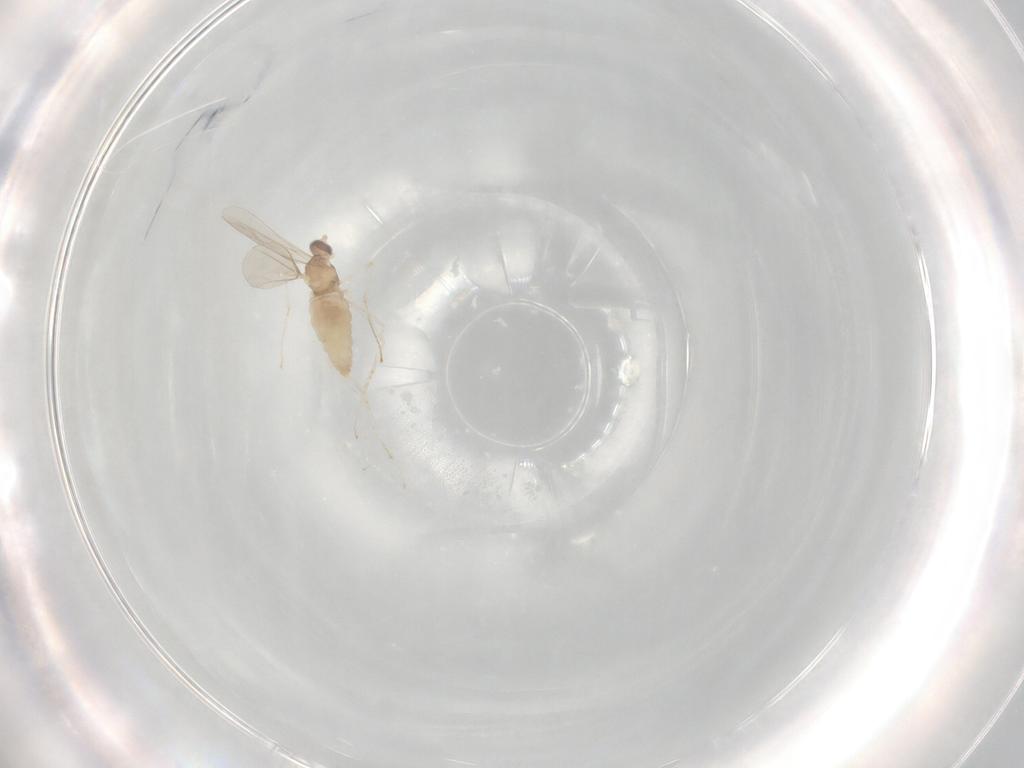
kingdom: Animalia
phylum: Arthropoda
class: Insecta
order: Diptera
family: Cecidomyiidae
